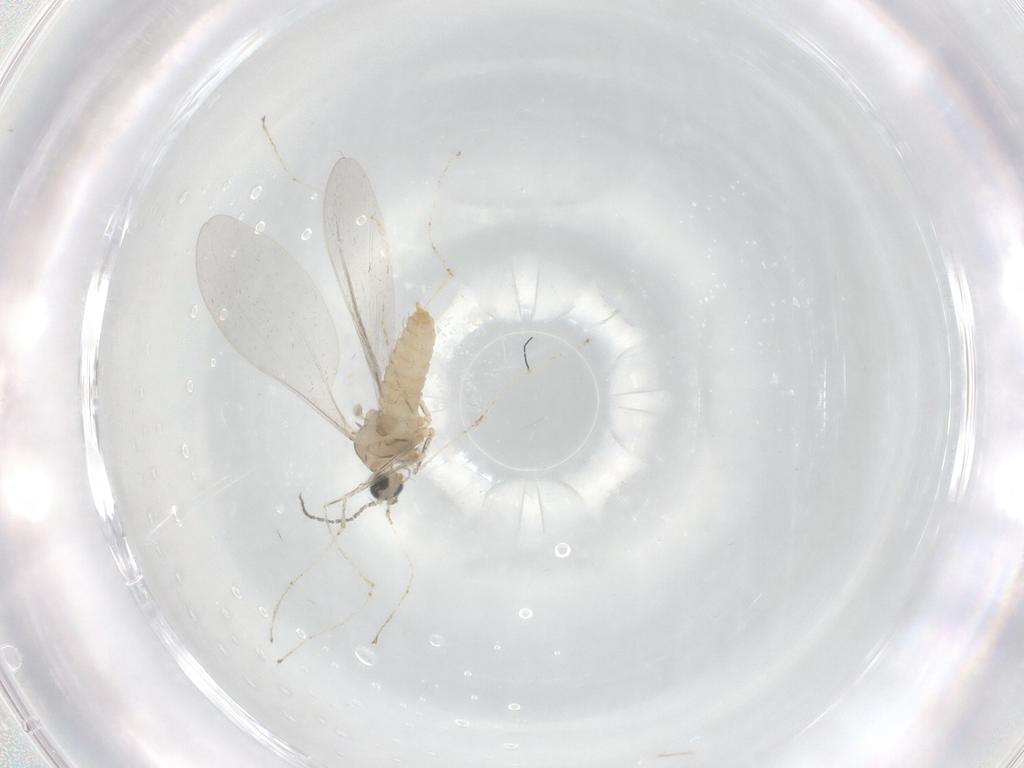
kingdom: Animalia
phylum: Arthropoda
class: Insecta
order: Diptera
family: Cecidomyiidae
